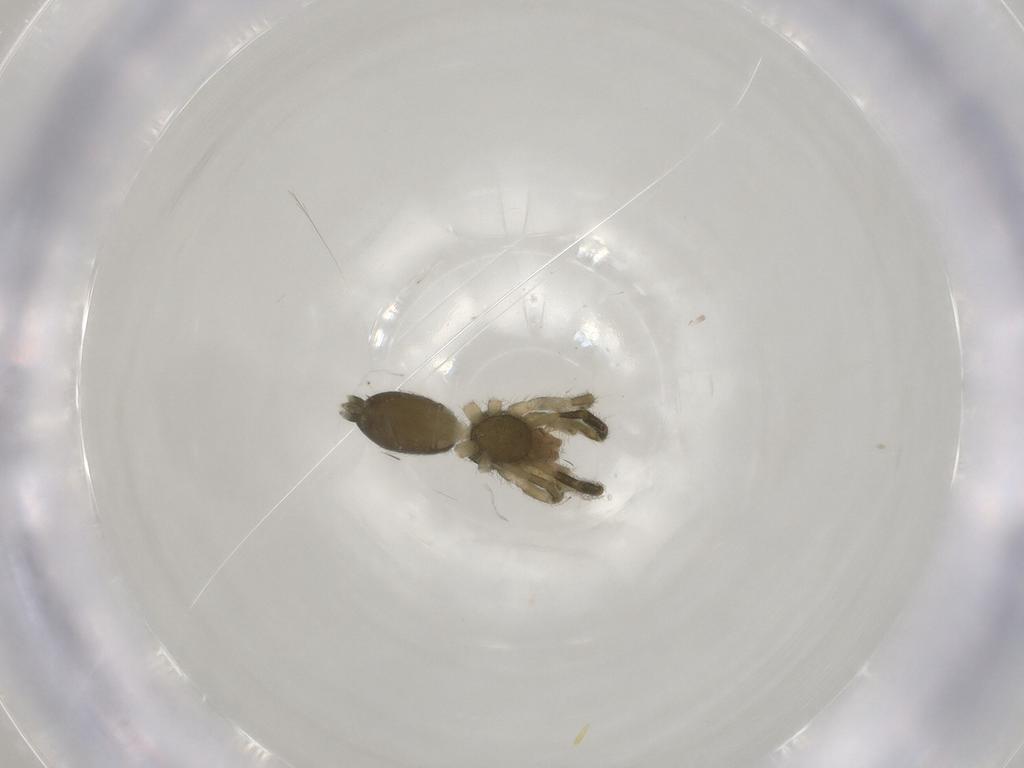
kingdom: Animalia
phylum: Arthropoda
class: Arachnida
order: Araneae
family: Gnaphosidae
